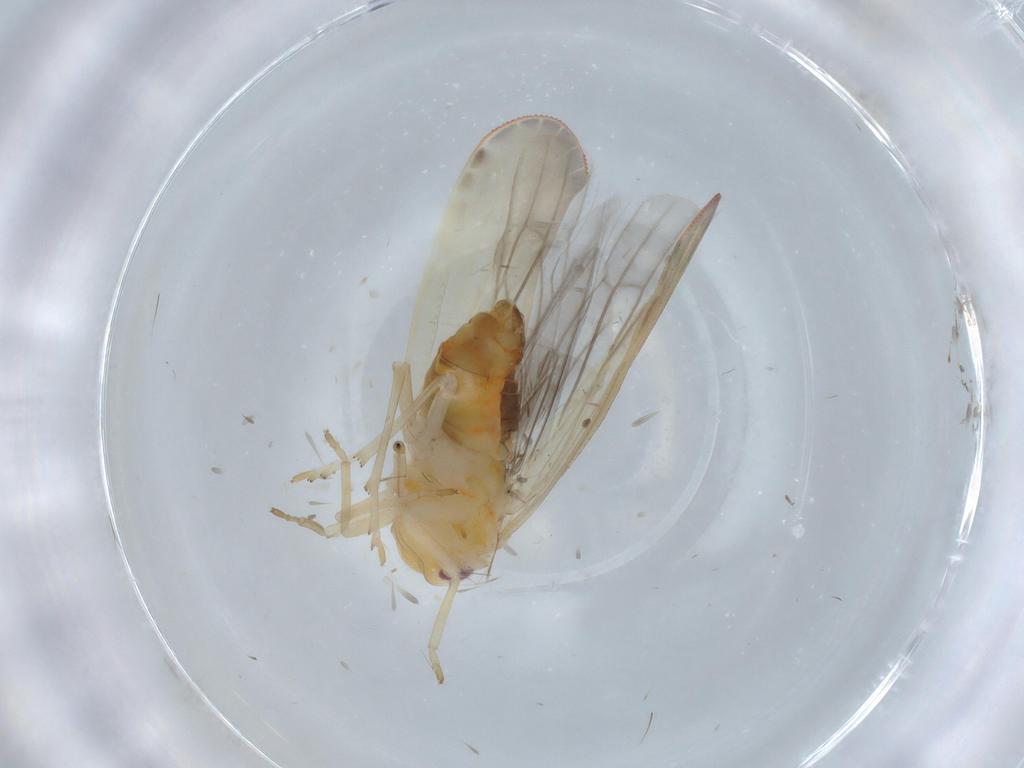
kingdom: Animalia
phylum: Arthropoda
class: Insecta
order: Hemiptera
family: Derbidae
